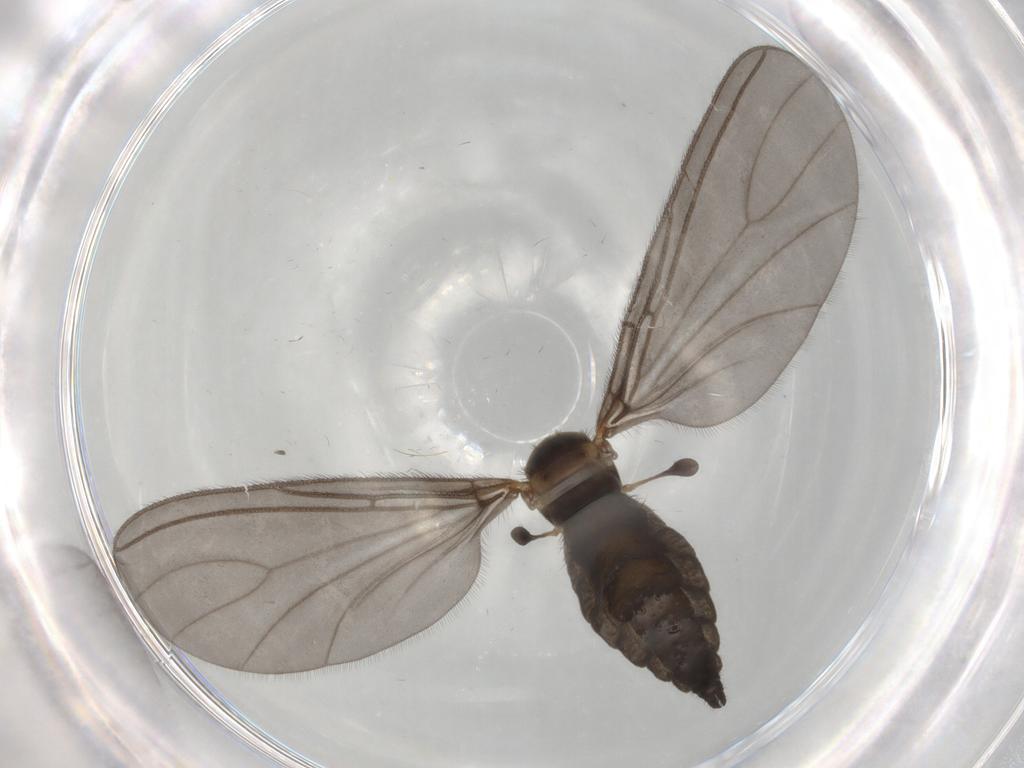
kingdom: Animalia
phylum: Arthropoda
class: Insecta
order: Diptera
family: Sciaridae
